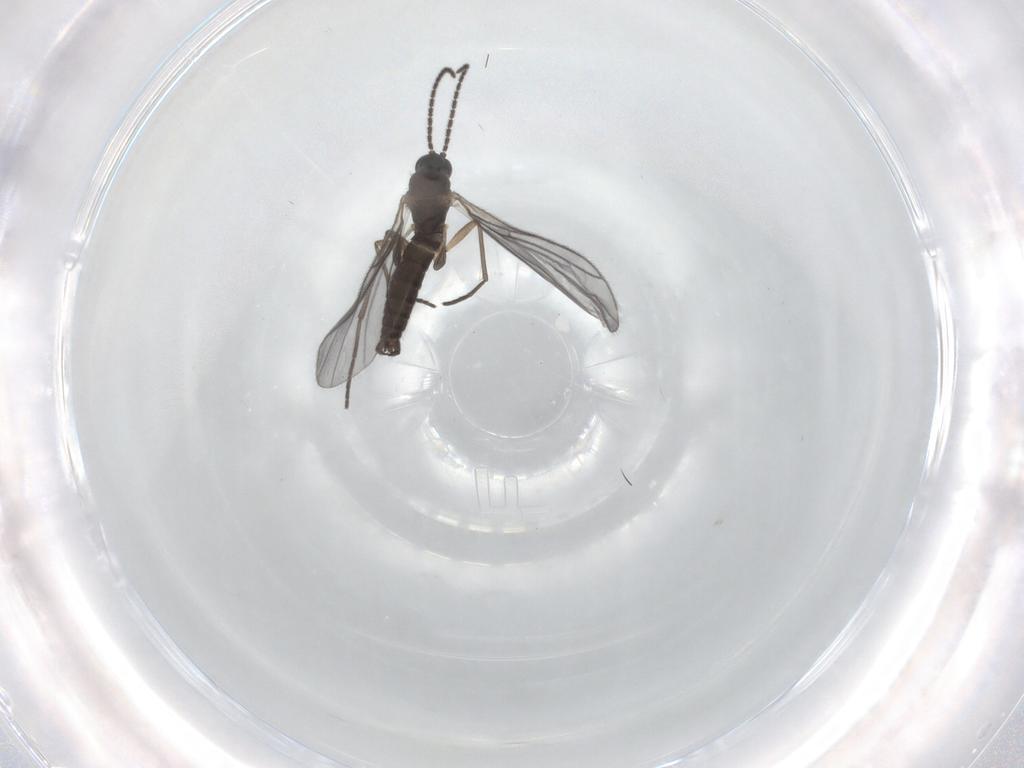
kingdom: Animalia
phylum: Arthropoda
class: Insecta
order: Diptera
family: Sciaridae
